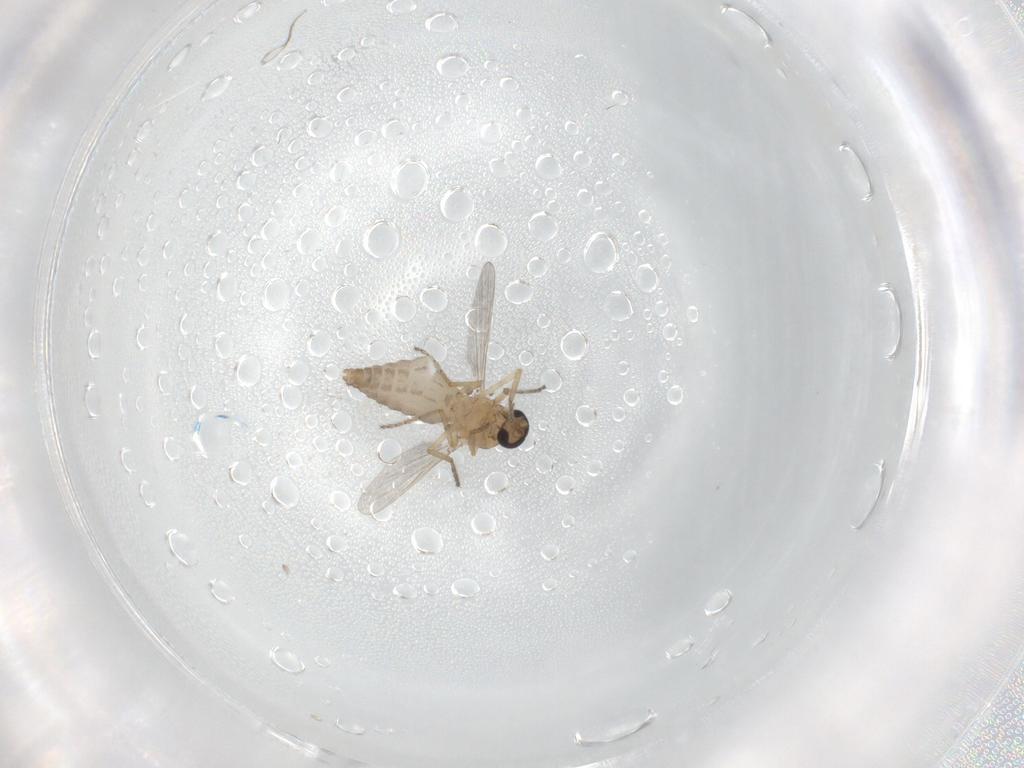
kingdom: Animalia
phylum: Arthropoda
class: Insecta
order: Diptera
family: Ceratopogonidae
